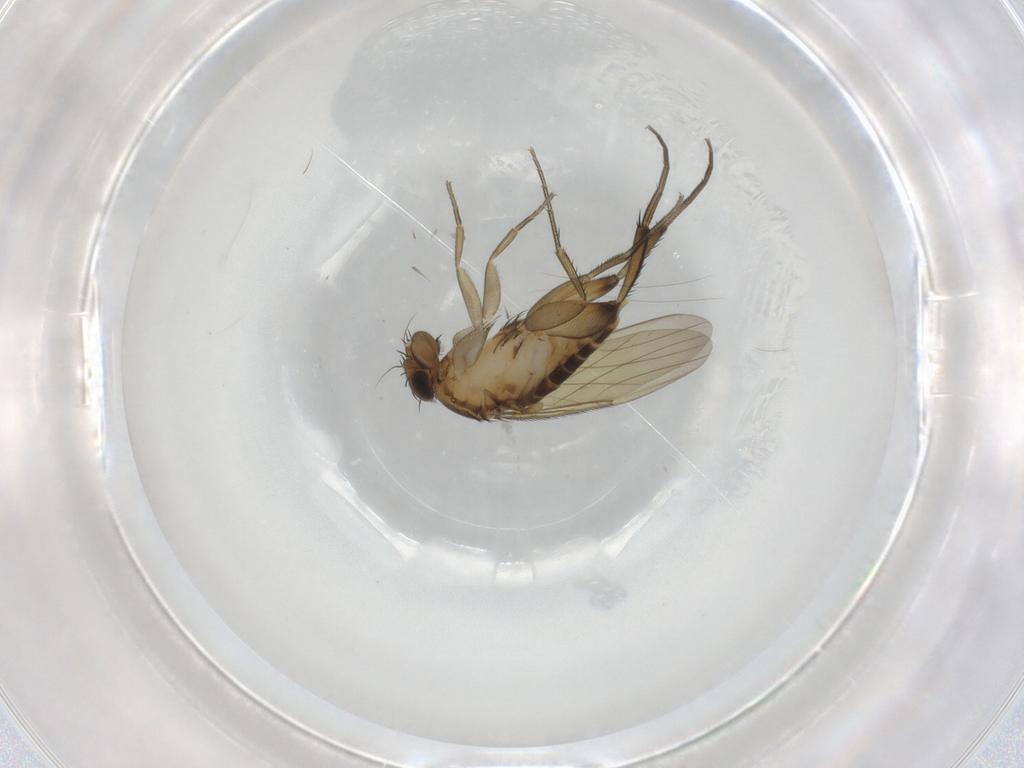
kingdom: Animalia
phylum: Arthropoda
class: Insecta
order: Diptera
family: Phoridae
